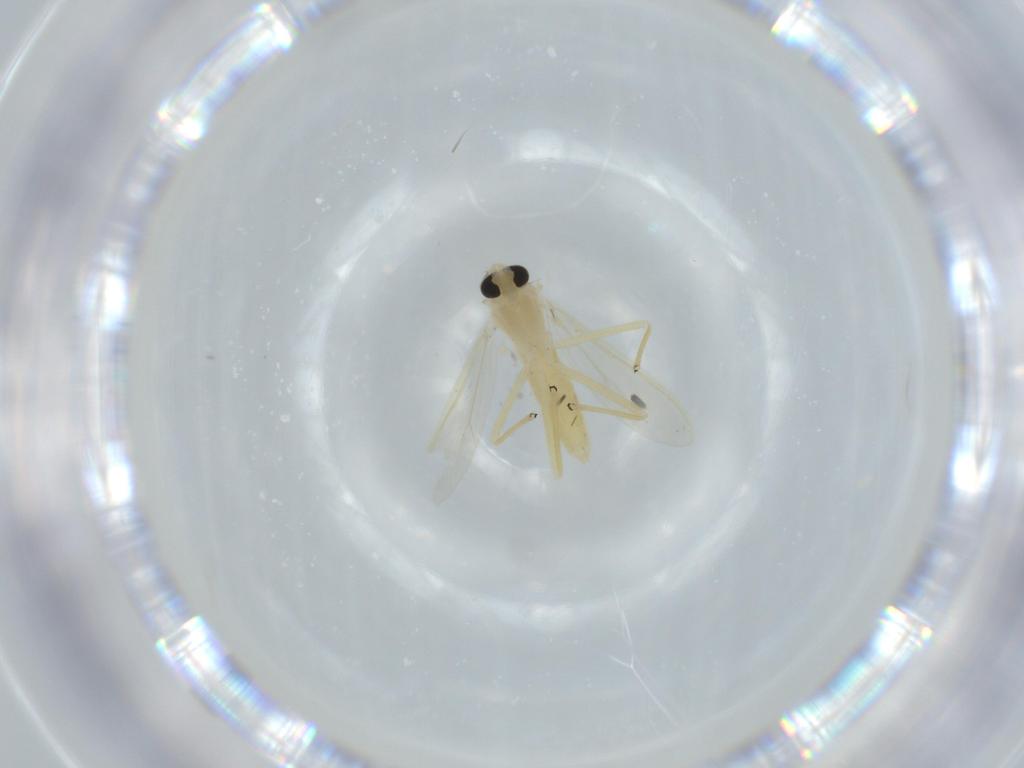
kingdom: Animalia
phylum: Arthropoda
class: Insecta
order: Diptera
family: Chironomidae
